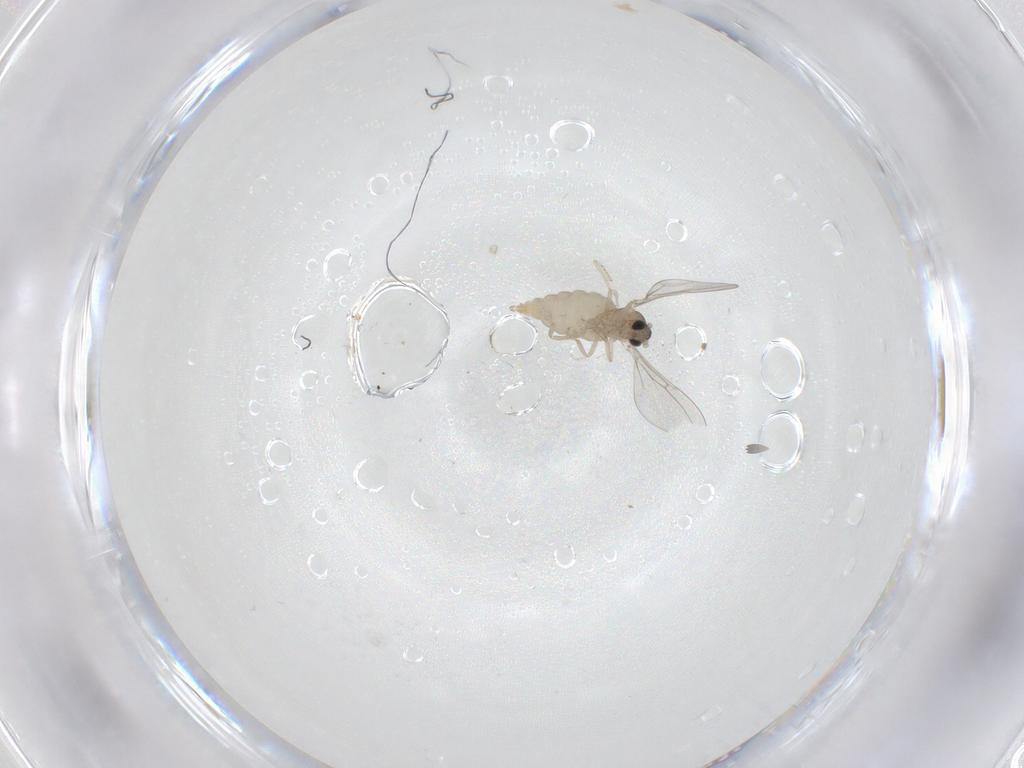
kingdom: Animalia
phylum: Arthropoda
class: Insecta
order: Diptera
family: Cecidomyiidae
